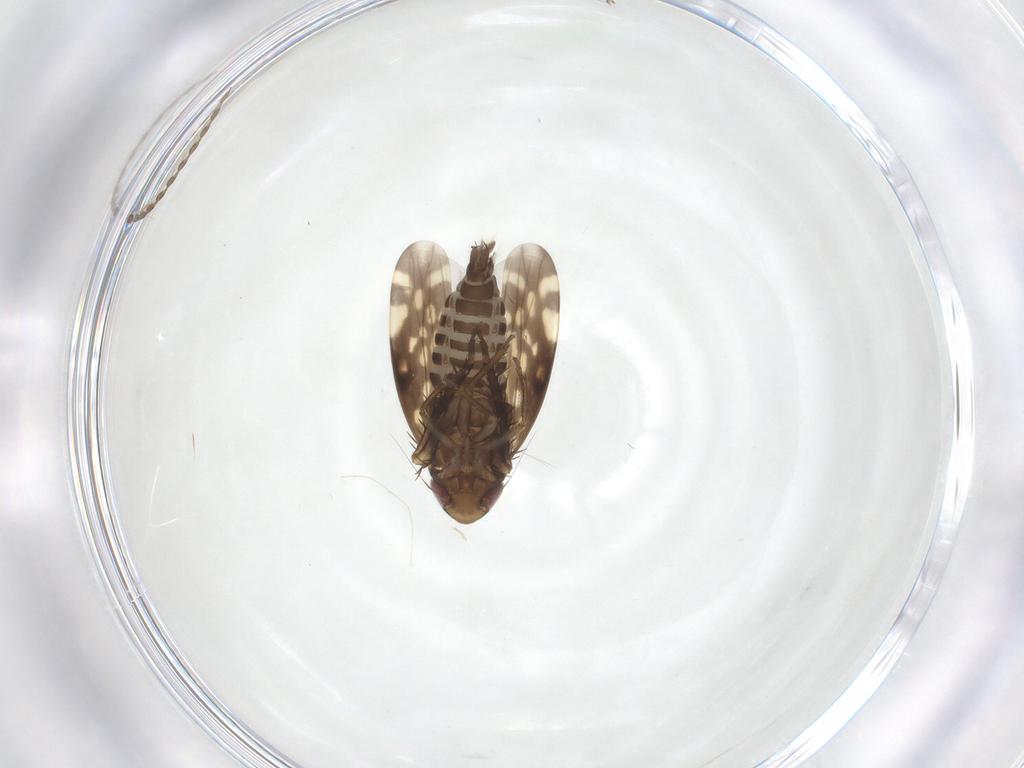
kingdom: Animalia
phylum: Arthropoda
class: Insecta
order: Hemiptera
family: Cicadellidae
